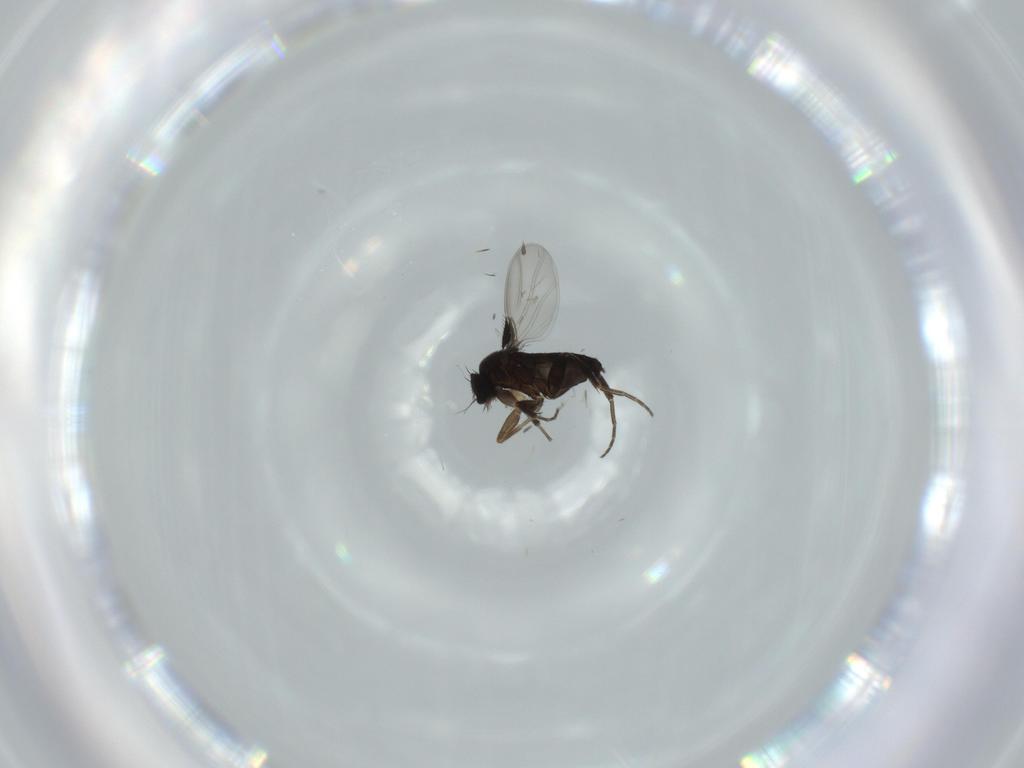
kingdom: Animalia
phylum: Arthropoda
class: Insecta
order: Diptera
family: Phoridae
